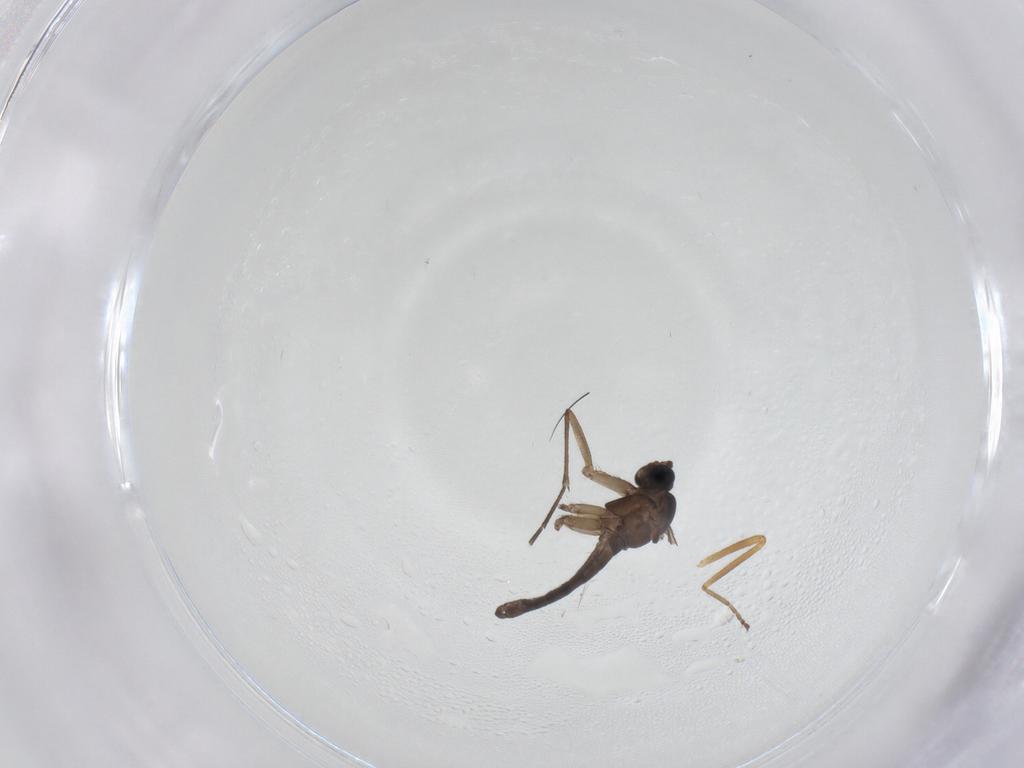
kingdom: Animalia
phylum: Arthropoda
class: Insecta
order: Diptera
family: Sciaridae
